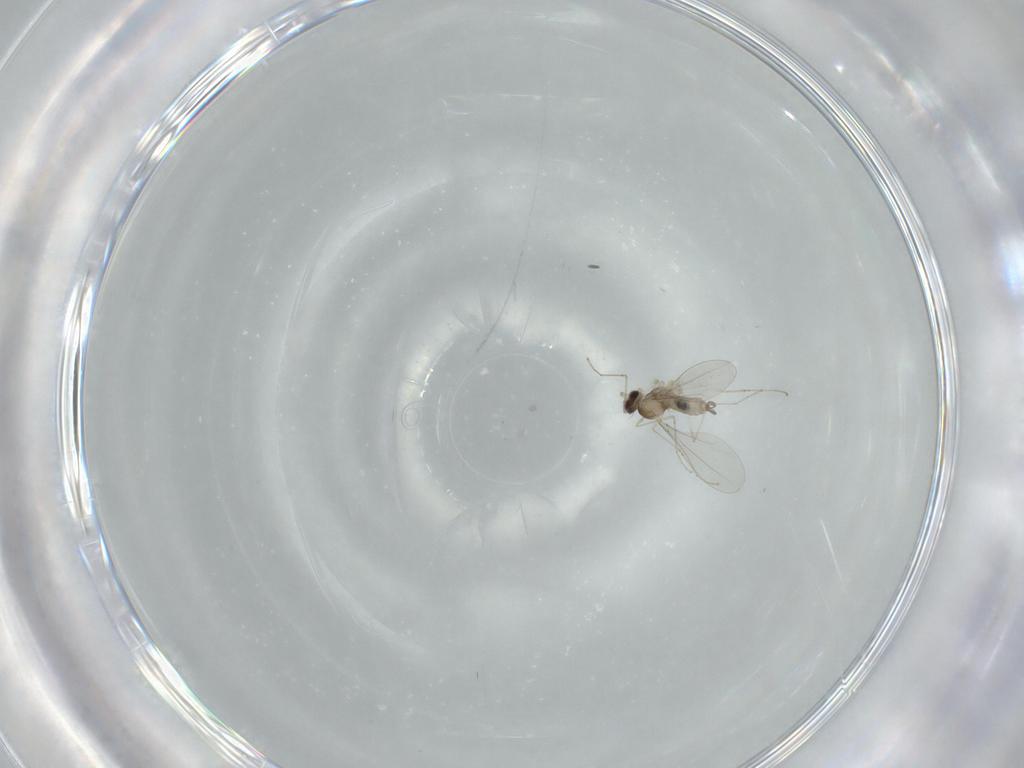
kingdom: Animalia
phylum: Arthropoda
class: Insecta
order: Diptera
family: Cecidomyiidae
